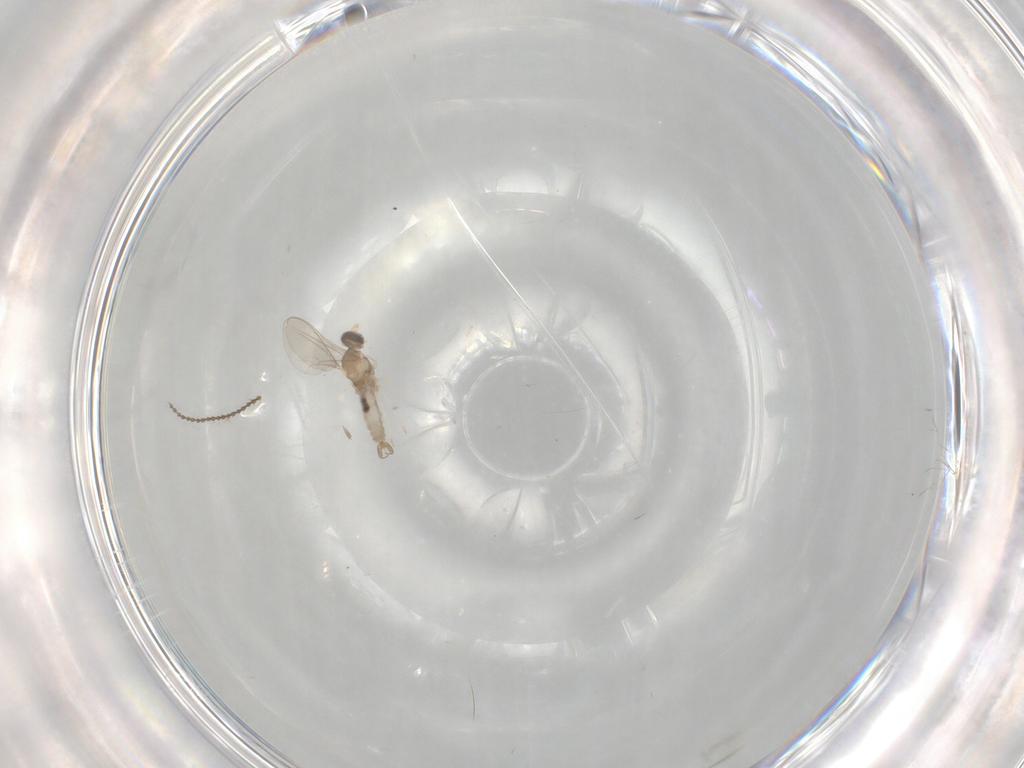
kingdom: Animalia
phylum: Arthropoda
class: Insecta
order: Diptera
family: Cecidomyiidae
